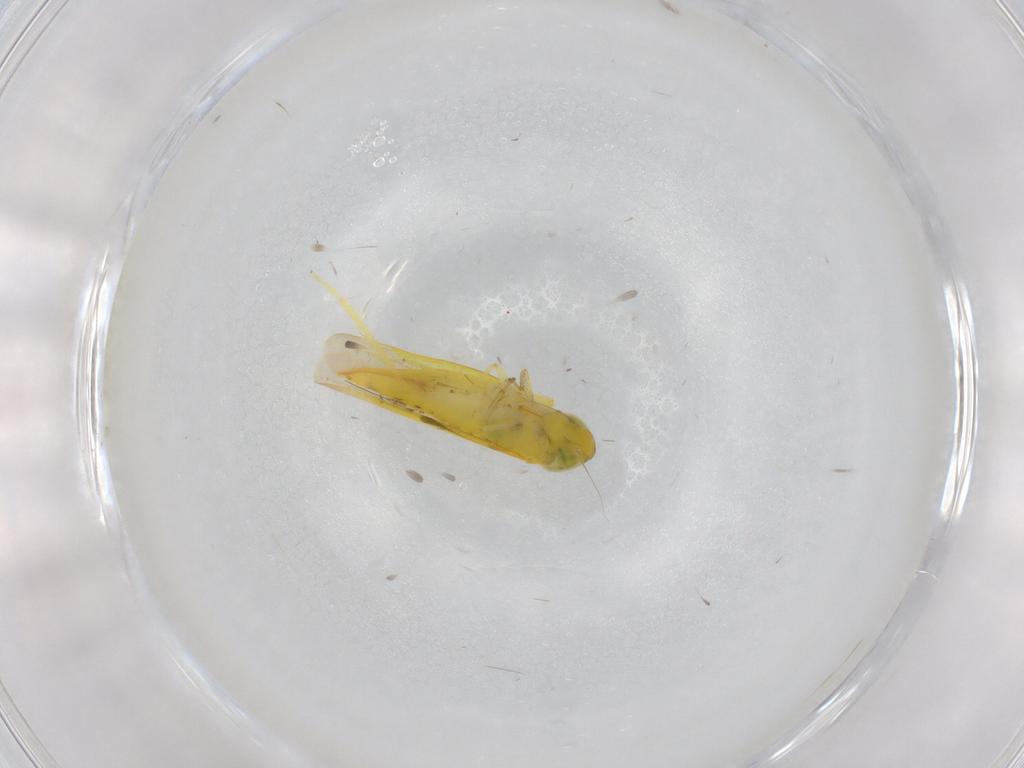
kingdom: Animalia
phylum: Arthropoda
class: Insecta
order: Hemiptera
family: Cicadellidae
